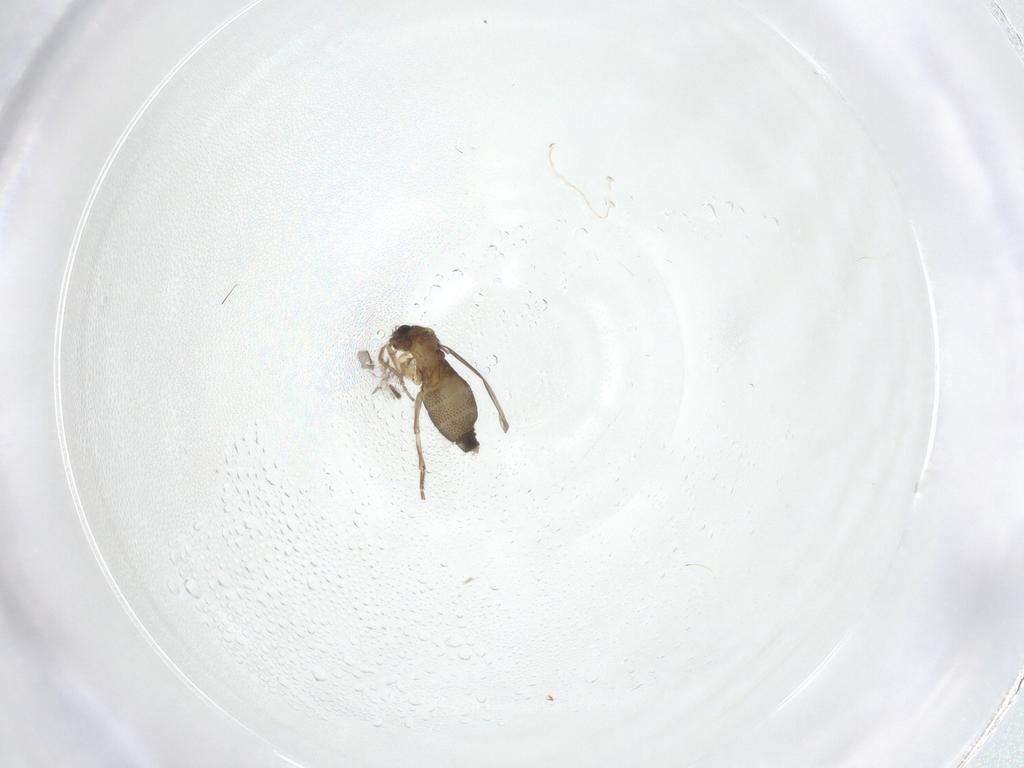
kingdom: Animalia
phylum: Arthropoda
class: Insecta
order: Diptera
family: Phoridae
